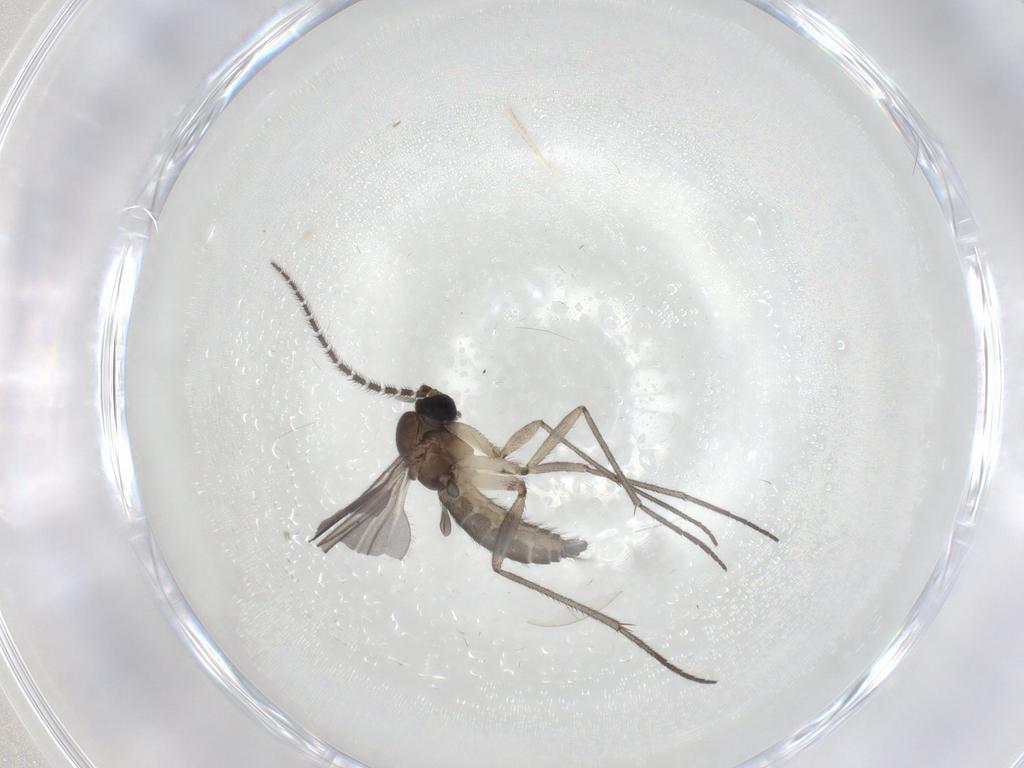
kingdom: Animalia
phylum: Arthropoda
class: Insecta
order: Diptera
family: Sciaridae
